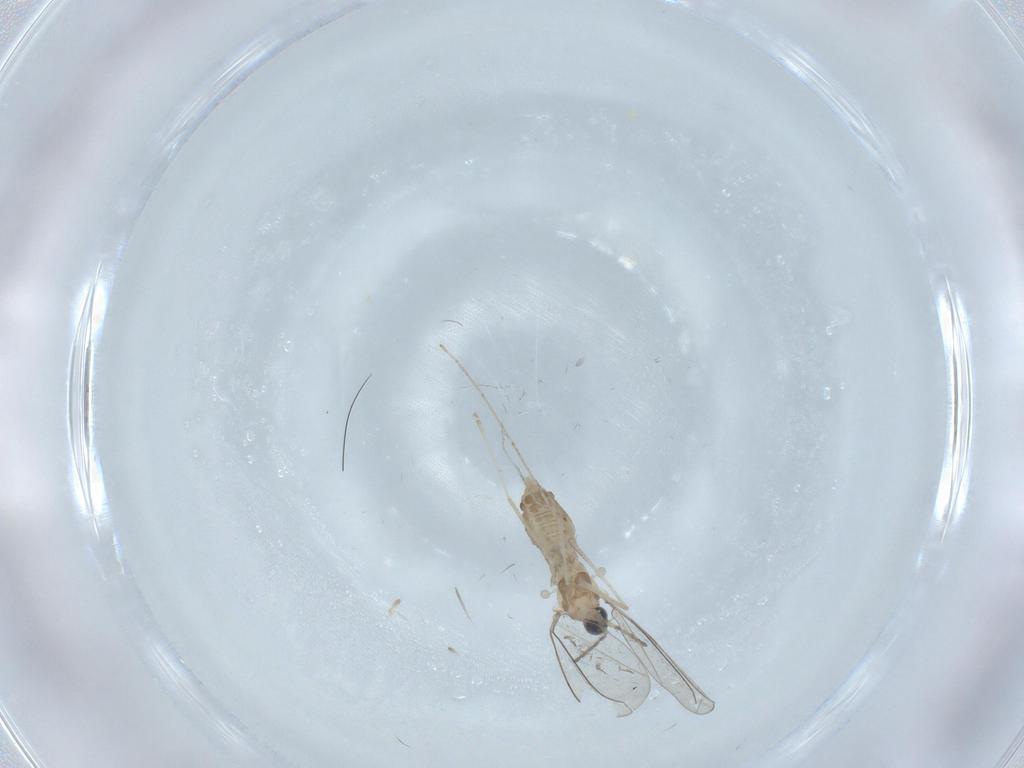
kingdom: Animalia
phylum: Arthropoda
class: Insecta
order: Diptera
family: Cecidomyiidae
